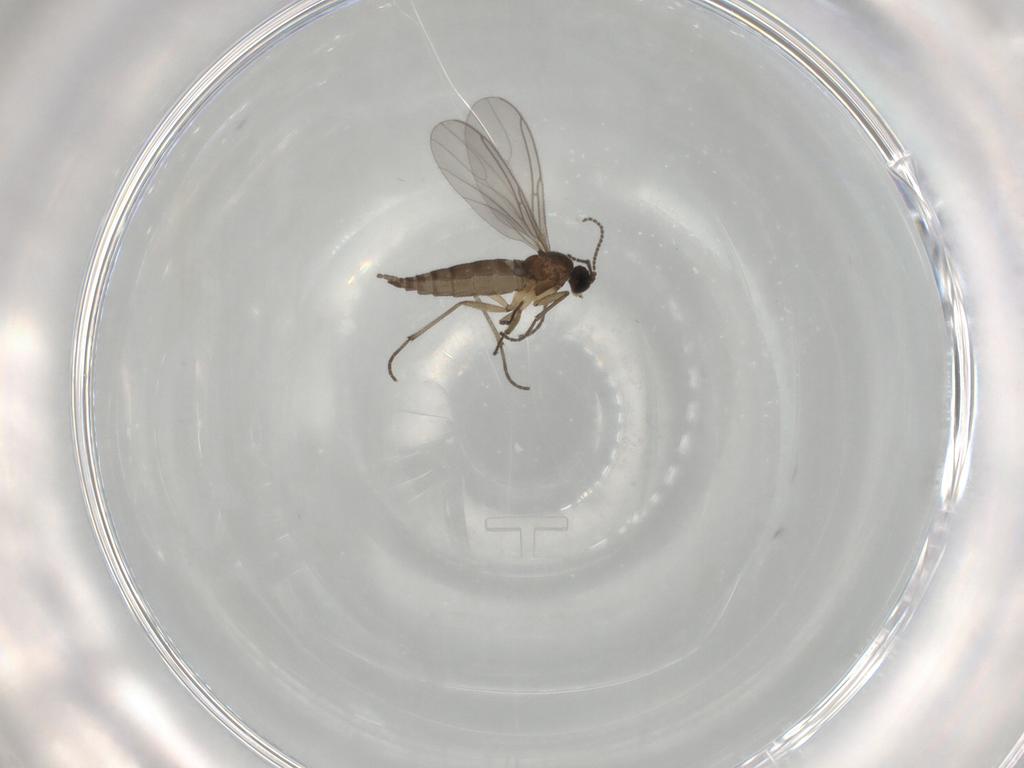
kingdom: Animalia
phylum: Arthropoda
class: Insecta
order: Diptera
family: Sciaridae
